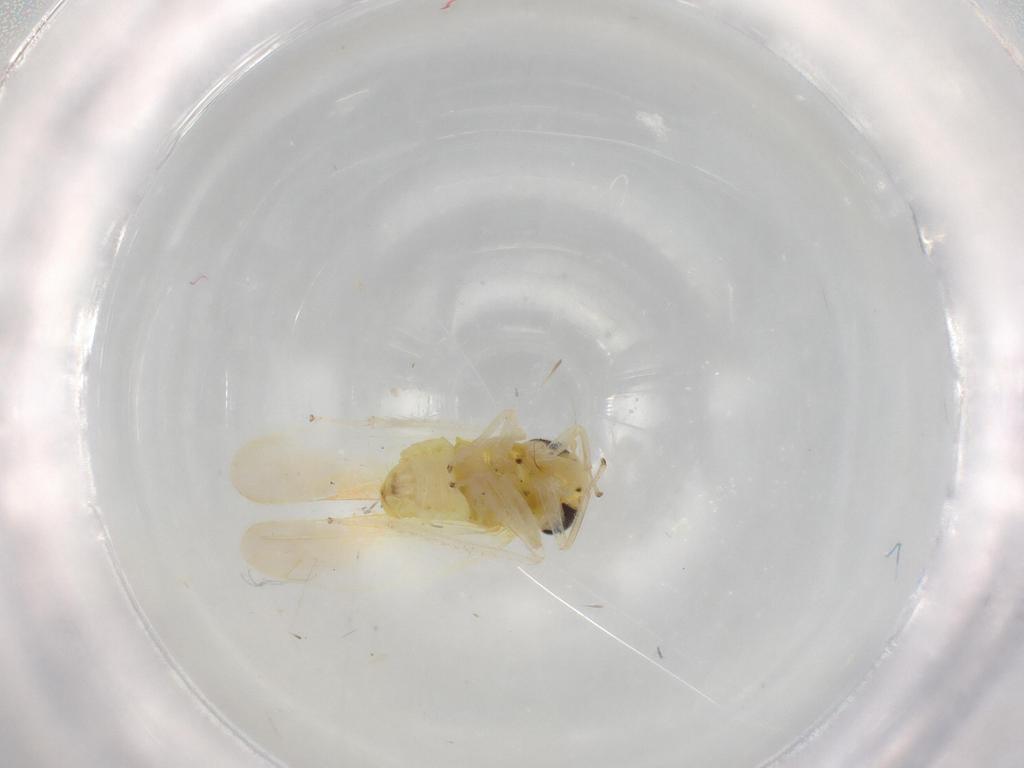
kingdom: Animalia
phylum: Arthropoda
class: Insecta
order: Hemiptera
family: Cicadellidae
